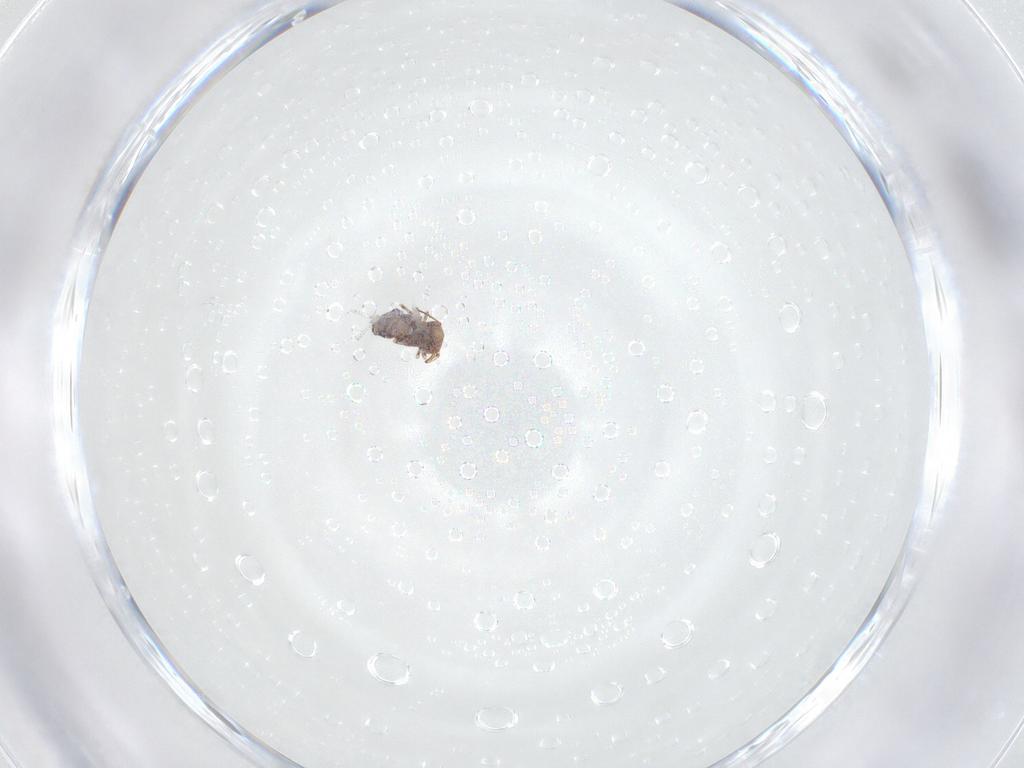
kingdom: Animalia
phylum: Arthropoda
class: Collembola
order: Symphypleona
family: Bourletiellidae
